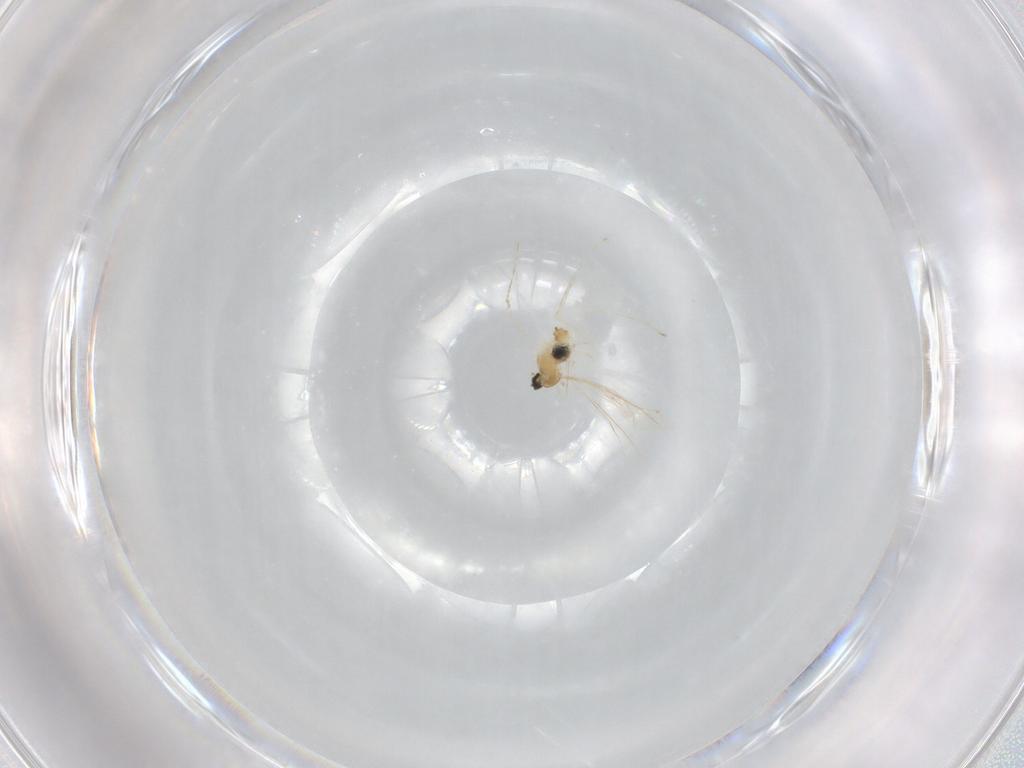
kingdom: Animalia
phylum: Arthropoda
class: Insecta
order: Diptera
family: Cecidomyiidae
